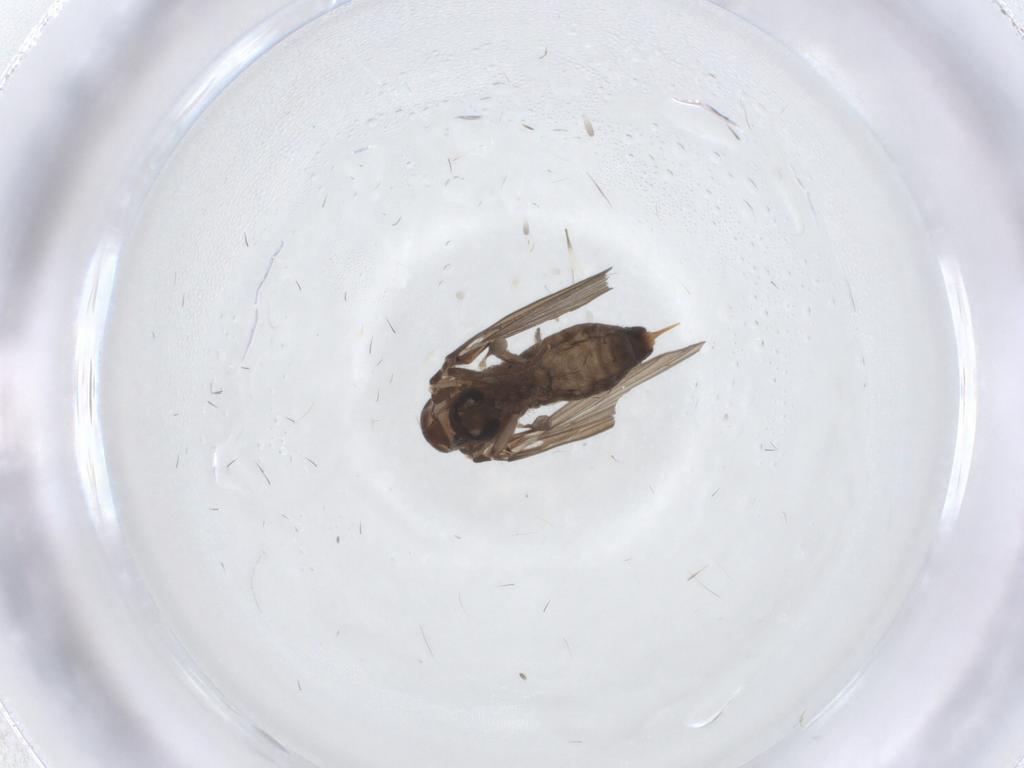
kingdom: Animalia
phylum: Arthropoda
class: Insecta
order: Diptera
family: Psychodidae
